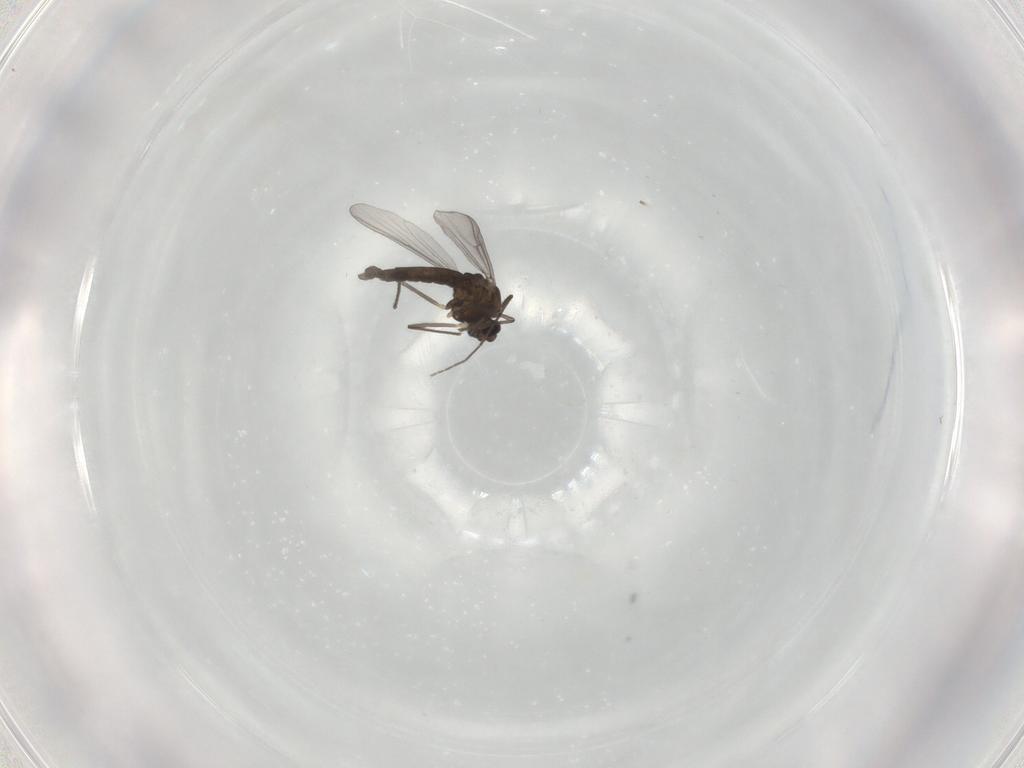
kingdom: Animalia
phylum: Arthropoda
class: Insecta
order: Diptera
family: Chironomidae
